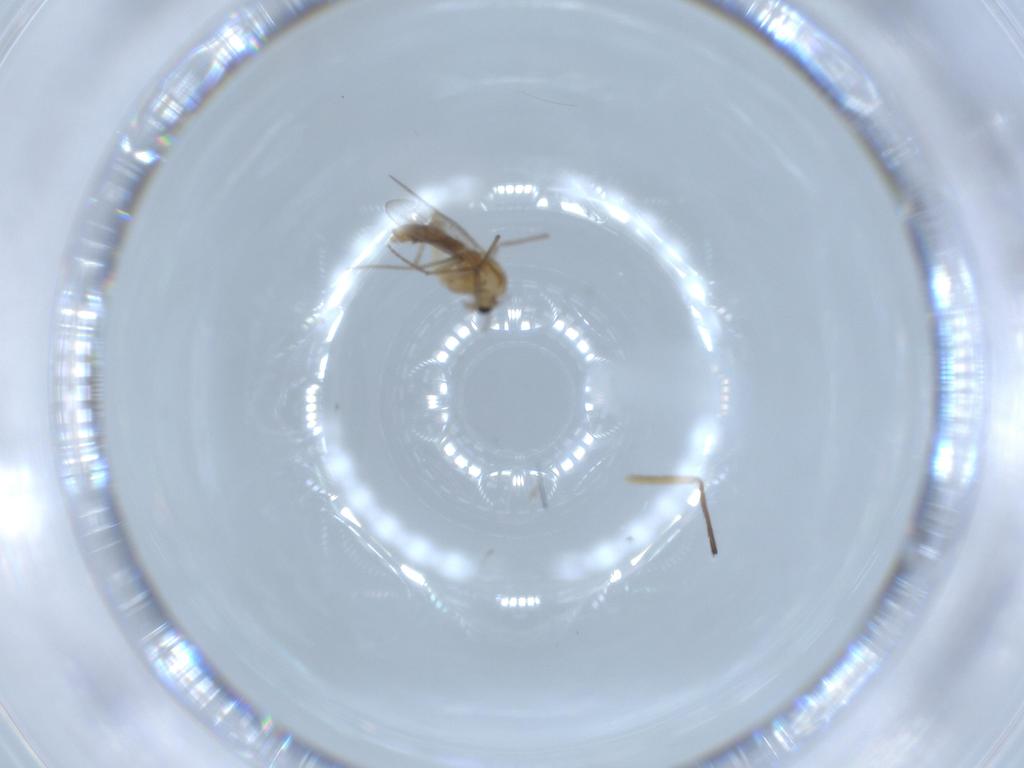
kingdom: Animalia
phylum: Arthropoda
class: Insecta
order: Diptera
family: Chironomidae
